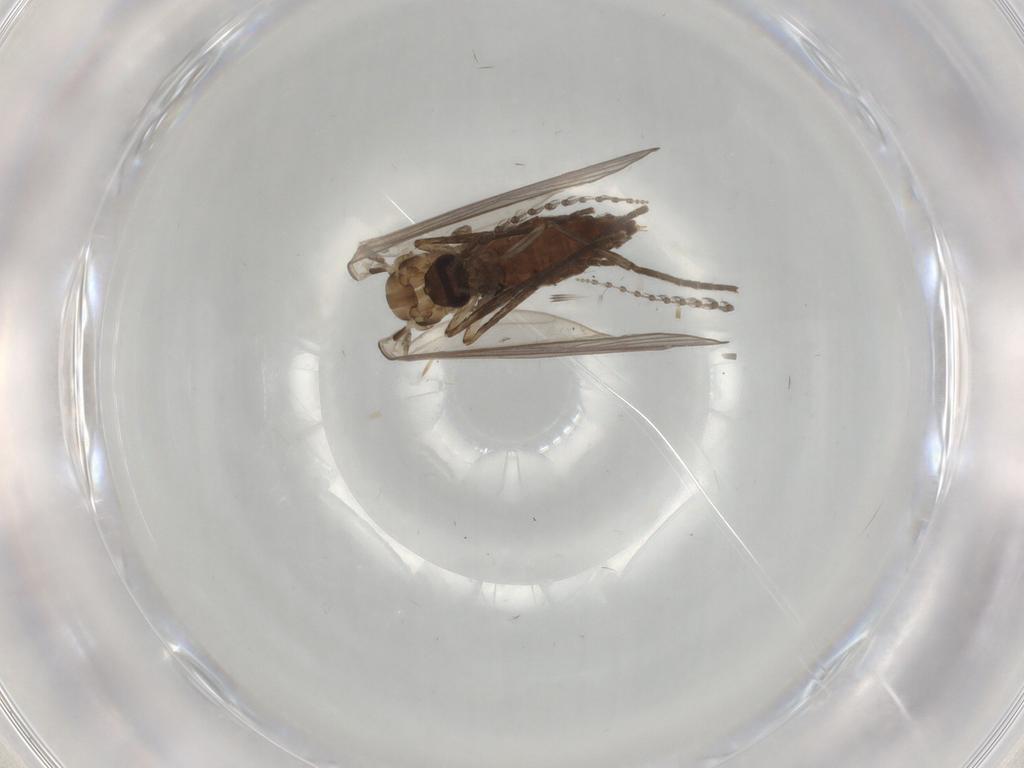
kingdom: Animalia
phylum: Arthropoda
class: Insecta
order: Diptera
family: Psychodidae
